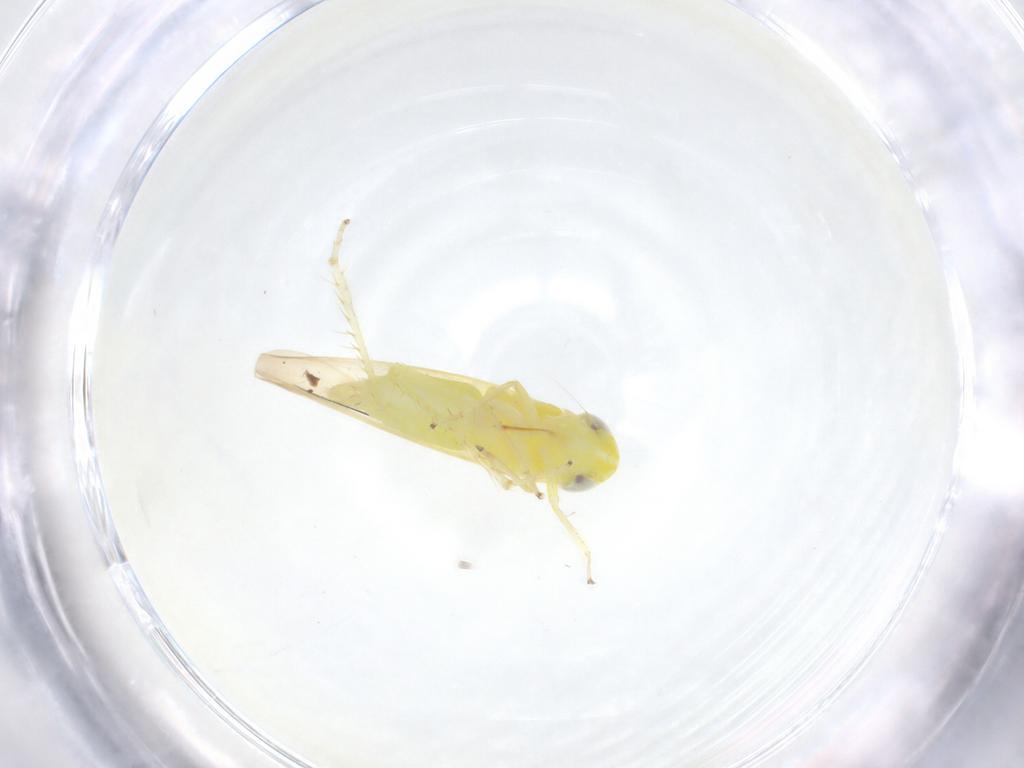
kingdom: Animalia
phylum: Arthropoda
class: Insecta
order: Hemiptera
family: Cicadellidae
